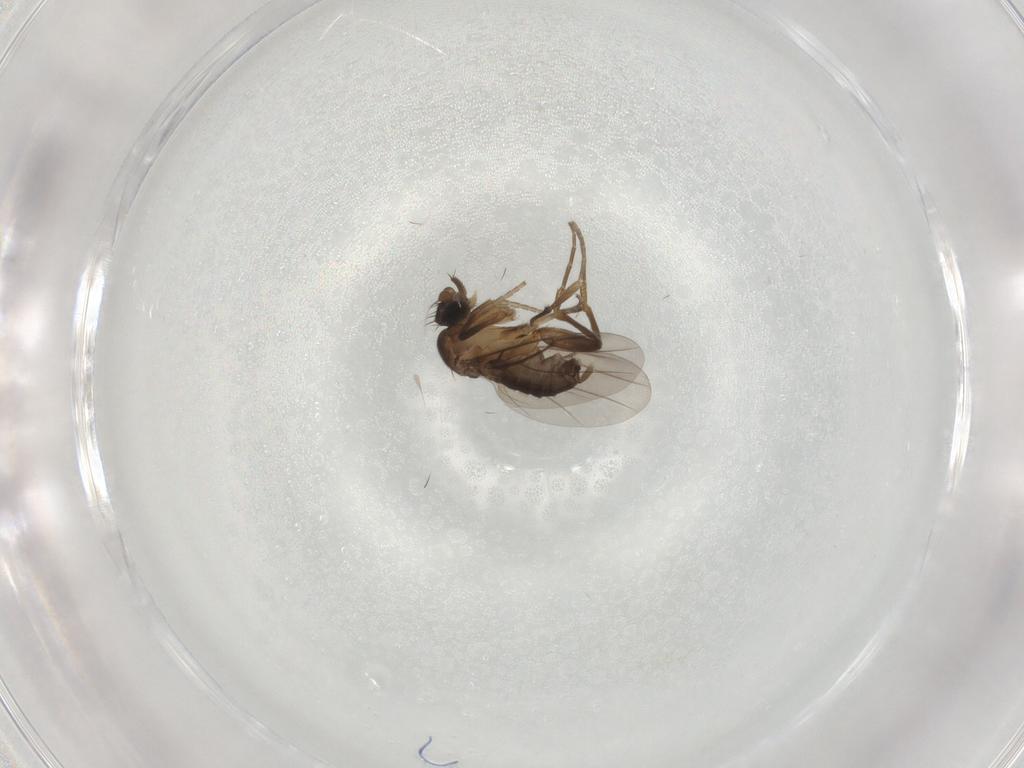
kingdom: Animalia
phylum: Arthropoda
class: Insecta
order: Diptera
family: Phoridae
